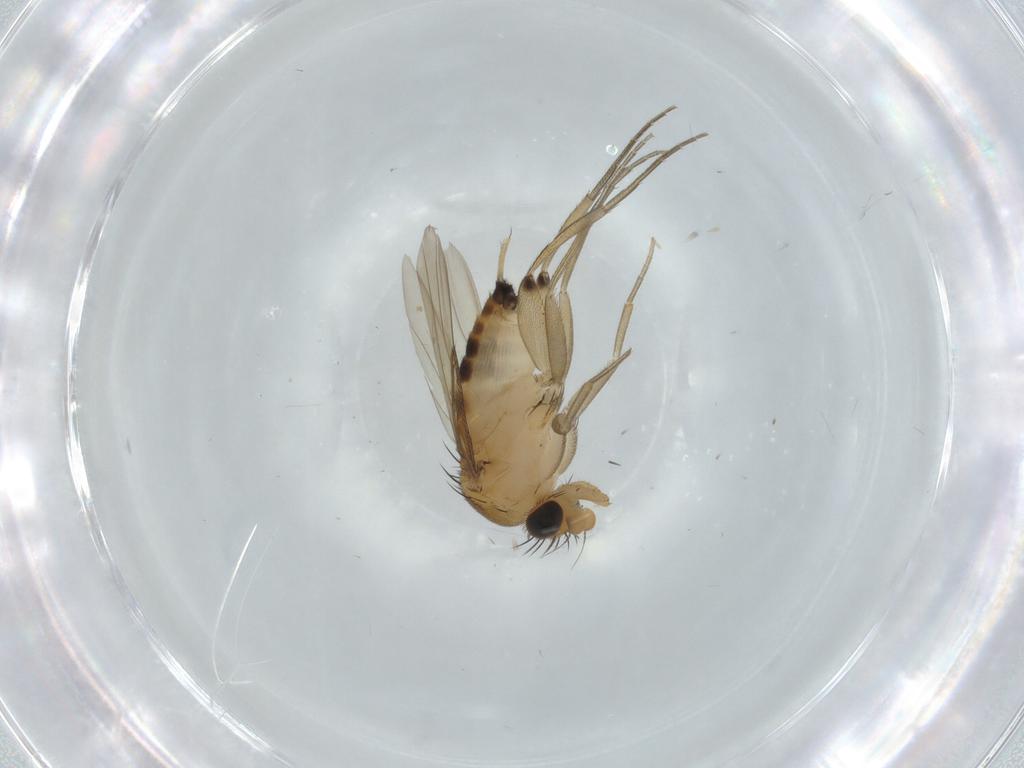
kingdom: Animalia
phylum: Arthropoda
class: Insecta
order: Diptera
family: Phoridae
